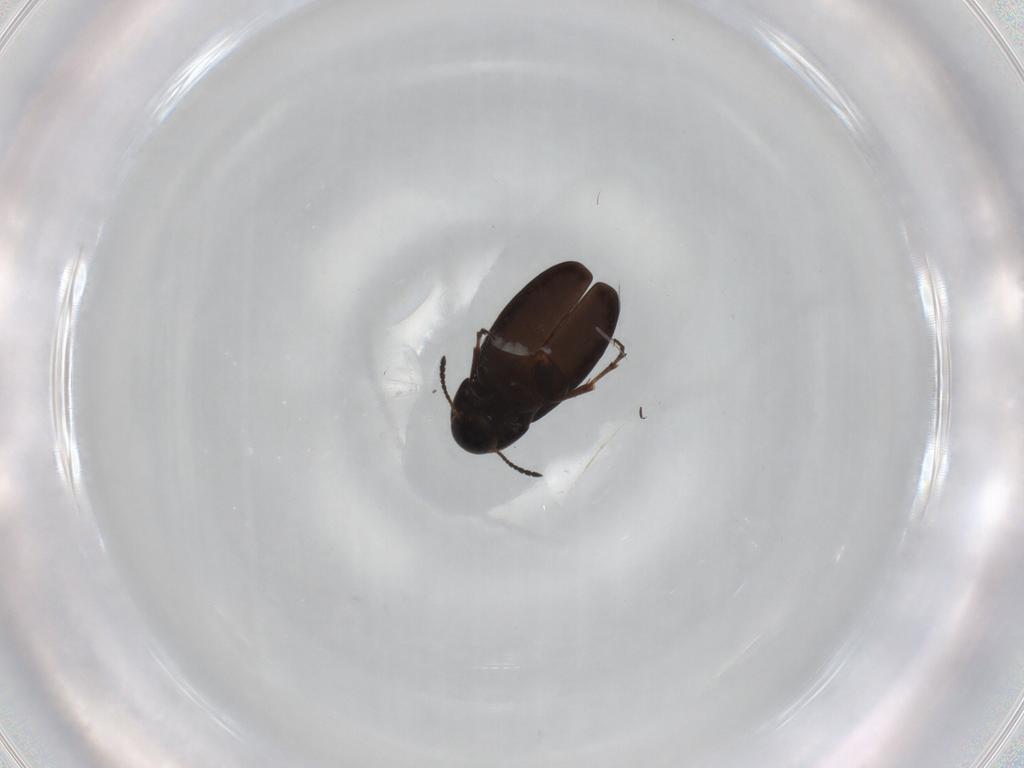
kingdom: Animalia
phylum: Arthropoda
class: Insecta
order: Coleoptera
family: Scraptiidae
